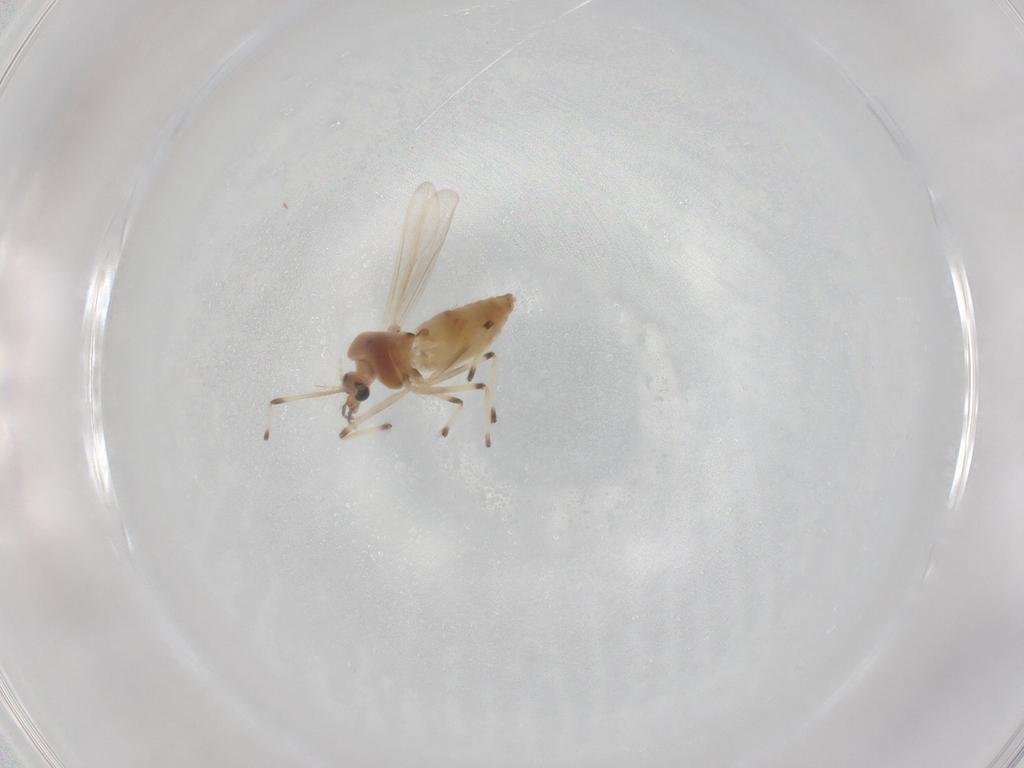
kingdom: Animalia
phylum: Arthropoda
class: Insecta
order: Diptera
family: Chironomidae
